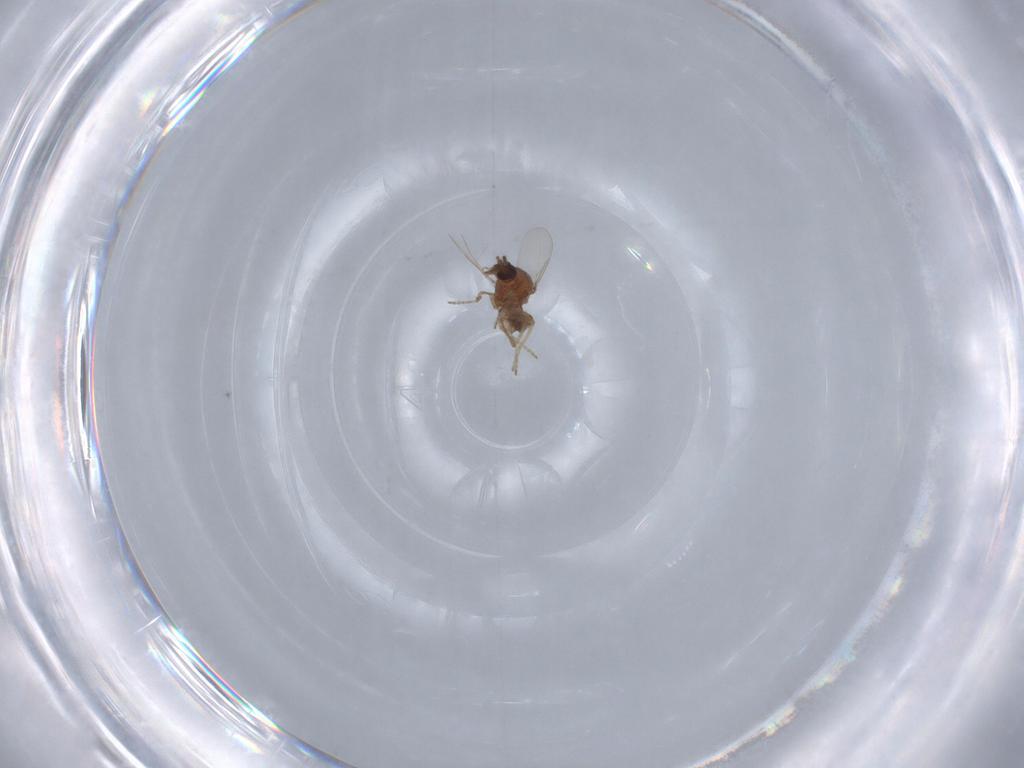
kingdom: Animalia
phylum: Arthropoda
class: Insecta
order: Diptera
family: Ceratopogonidae
